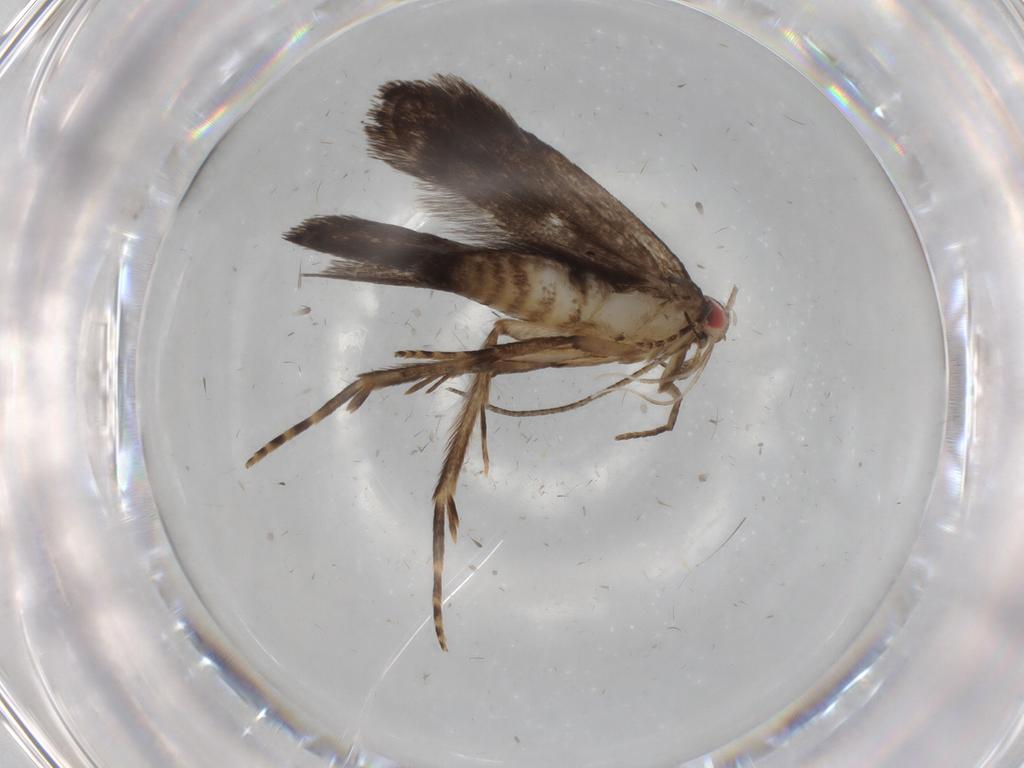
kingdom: Animalia
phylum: Arthropoda
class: Insecta
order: Lepidoptera
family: Gelechiidae
